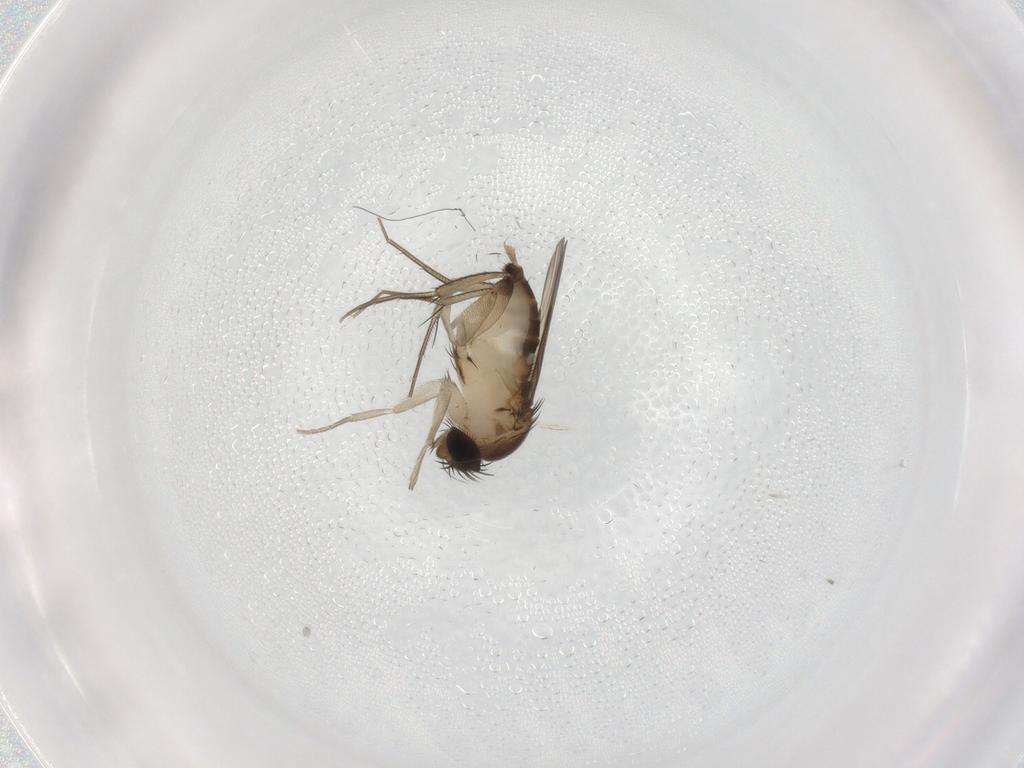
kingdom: Animalia
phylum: Arthropoda
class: Insecta
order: Diptera
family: Phoridae
